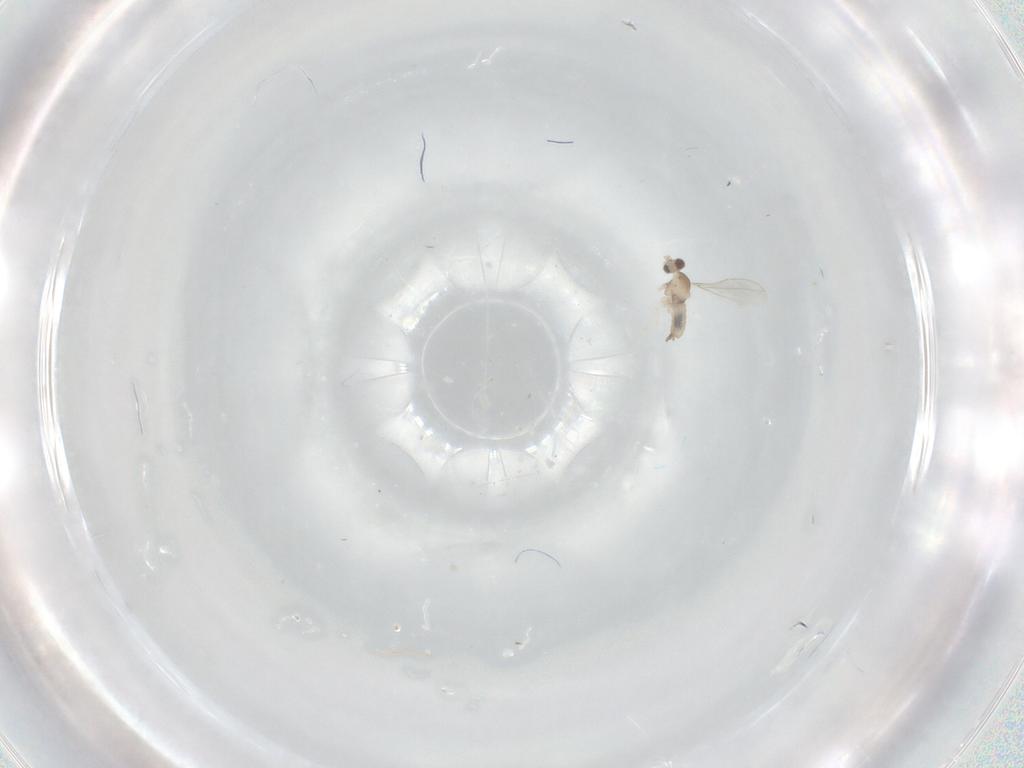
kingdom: Animalia
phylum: Arthropoda
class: Insecta
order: Diptera
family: Cecidomyiidae
